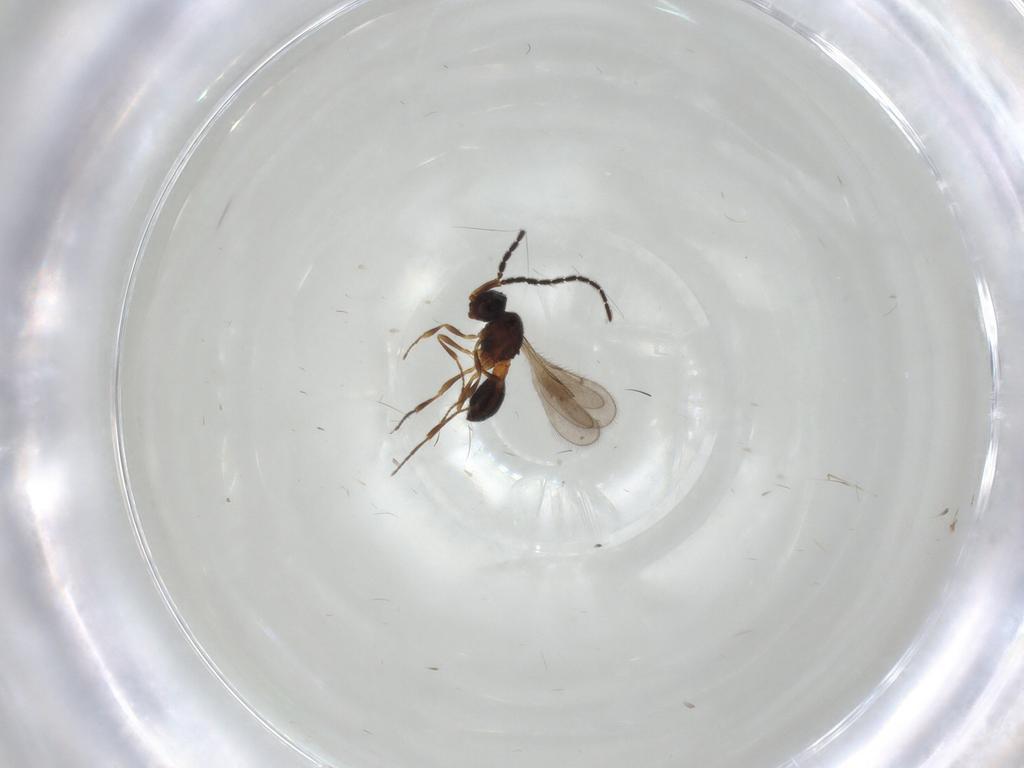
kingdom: Animalia
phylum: Arthropoda
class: Insecta
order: Hymenoptera
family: Scelionidae
